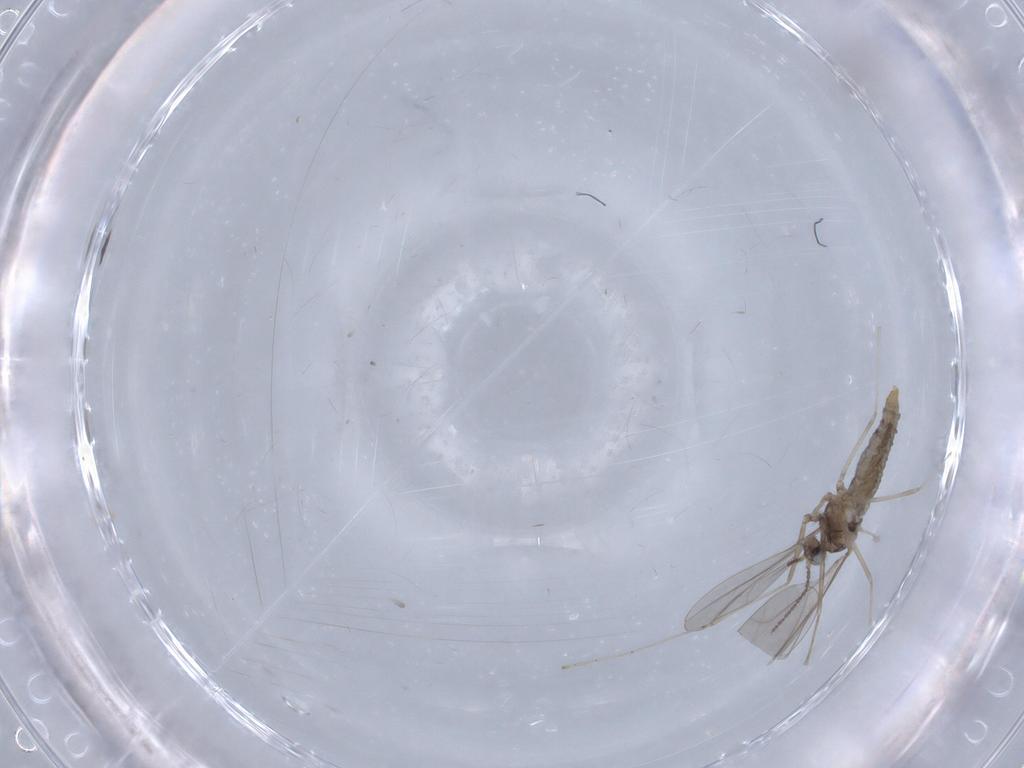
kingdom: Animalia
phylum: Arthropoda
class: Insecta
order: Diptera
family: Cecidomyiidae
